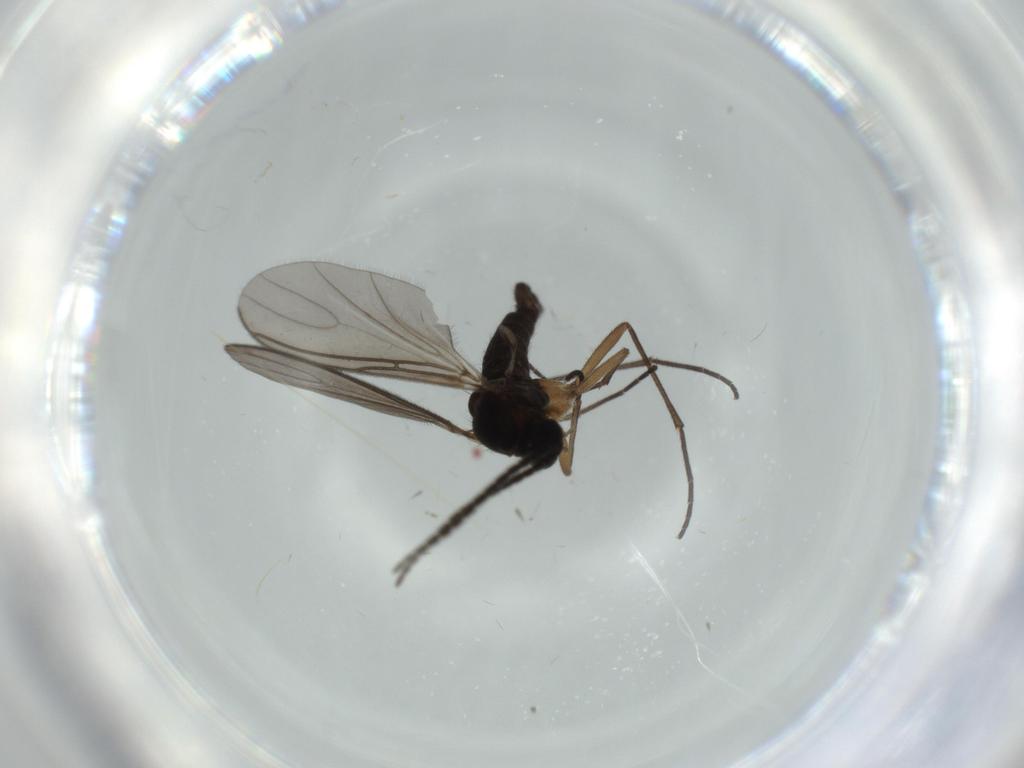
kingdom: Animalia
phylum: Arthropoda
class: Insecta
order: Diptera
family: Sciaridae
